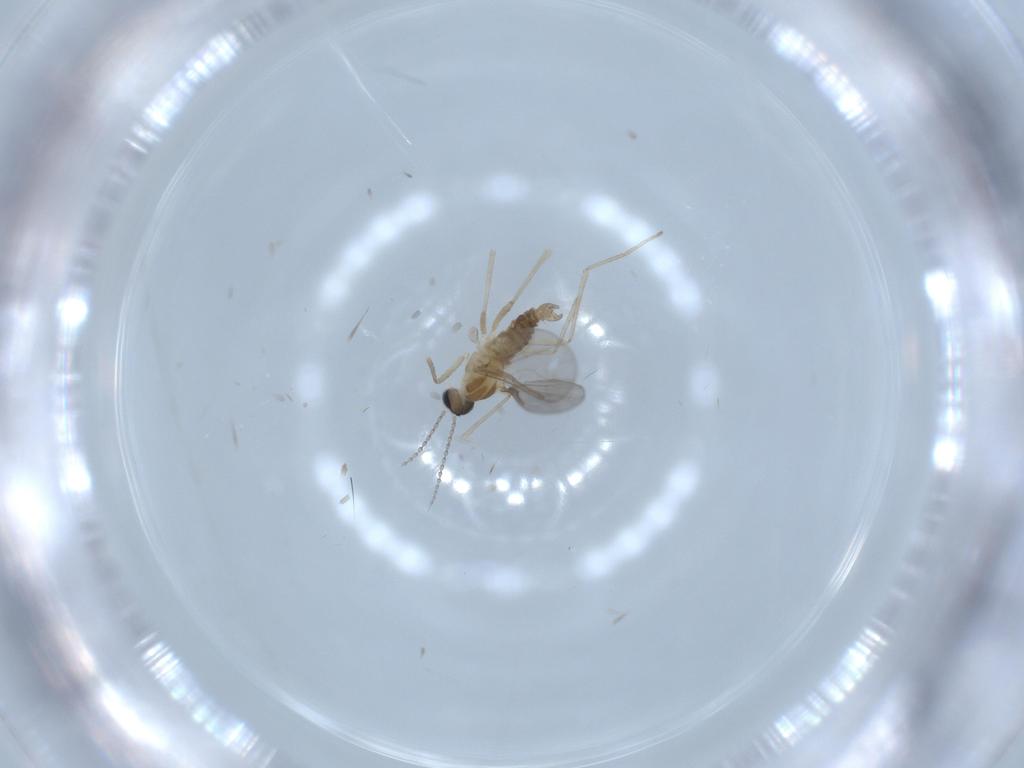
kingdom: Animalia
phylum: Arthropoda
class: Insecta
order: Diptera
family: Cecidomyiidae
